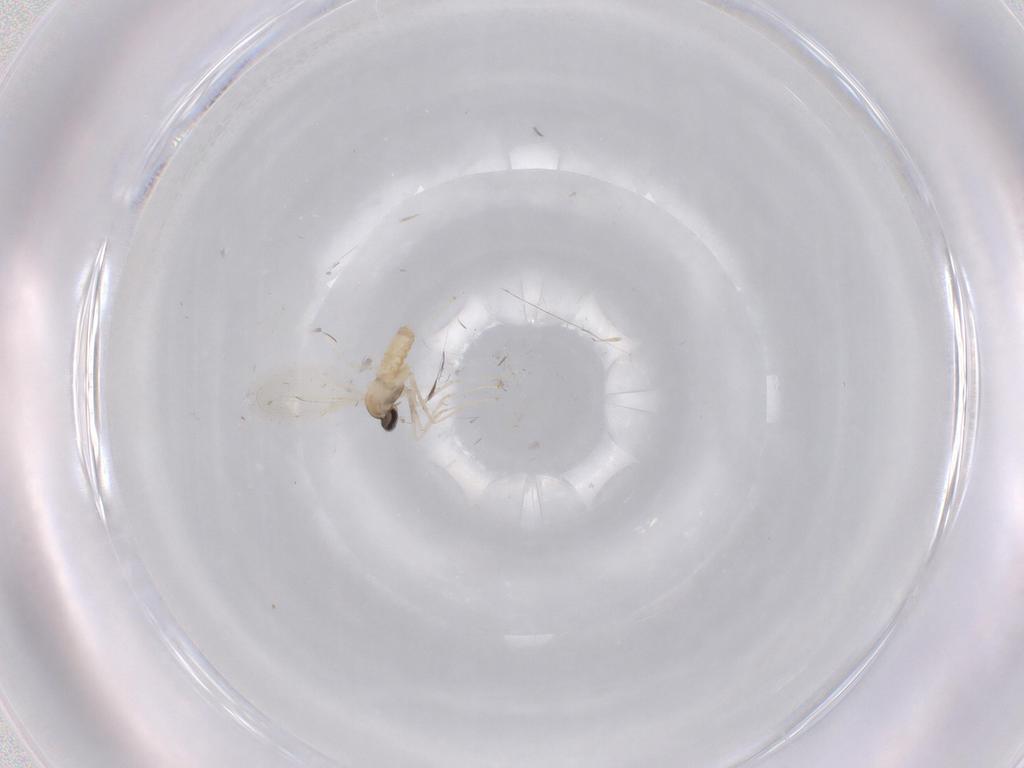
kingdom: Animalia
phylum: Arthropoda
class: Insecta
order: Diptera
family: Cecidomyiidae
